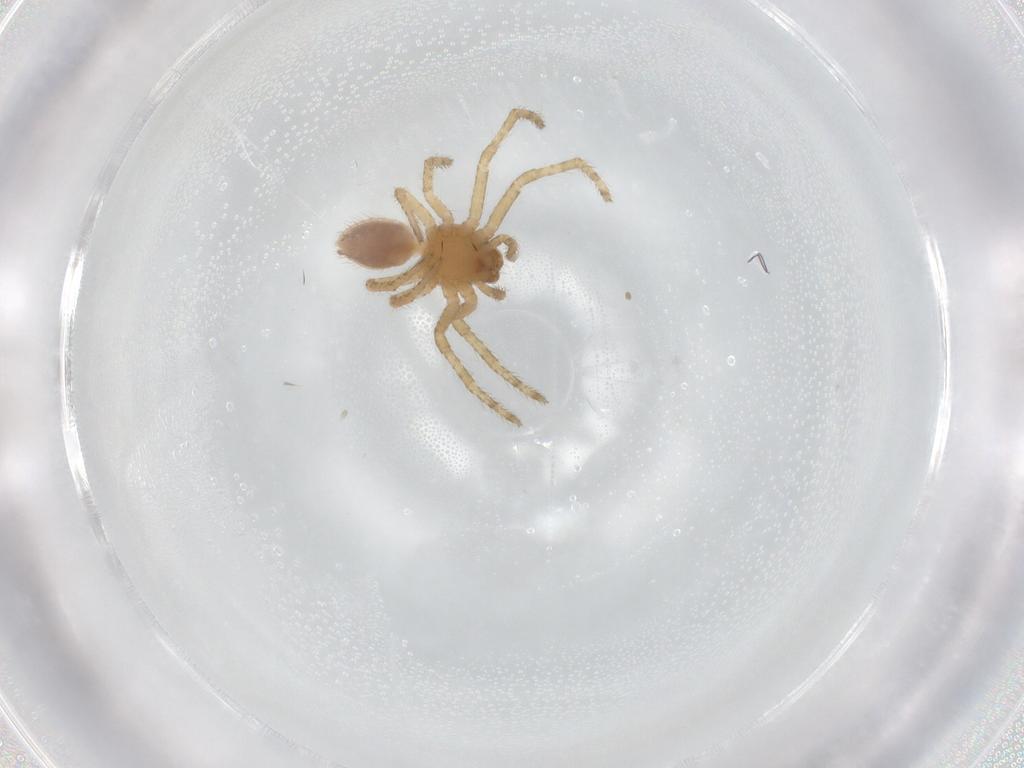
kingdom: Animalia
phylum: Arthropoda
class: Arachnida
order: Araneae
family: Thomisidae
